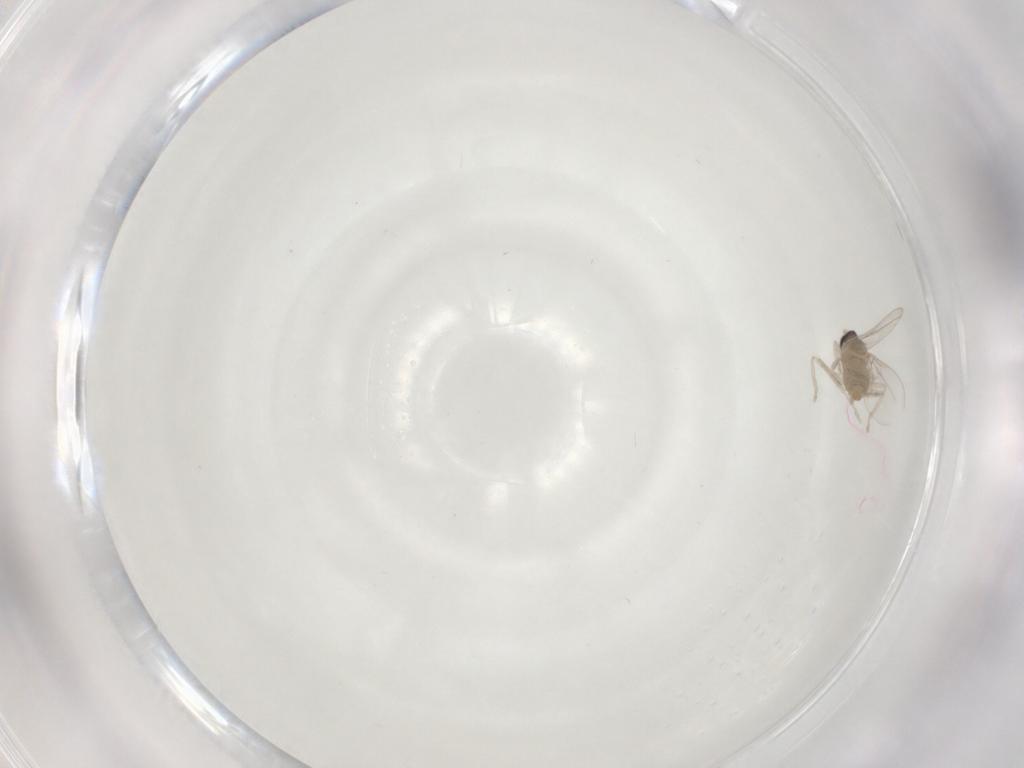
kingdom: Animalia
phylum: Arthropoda
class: Insecta
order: Diptera
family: Cecidomyiidae
